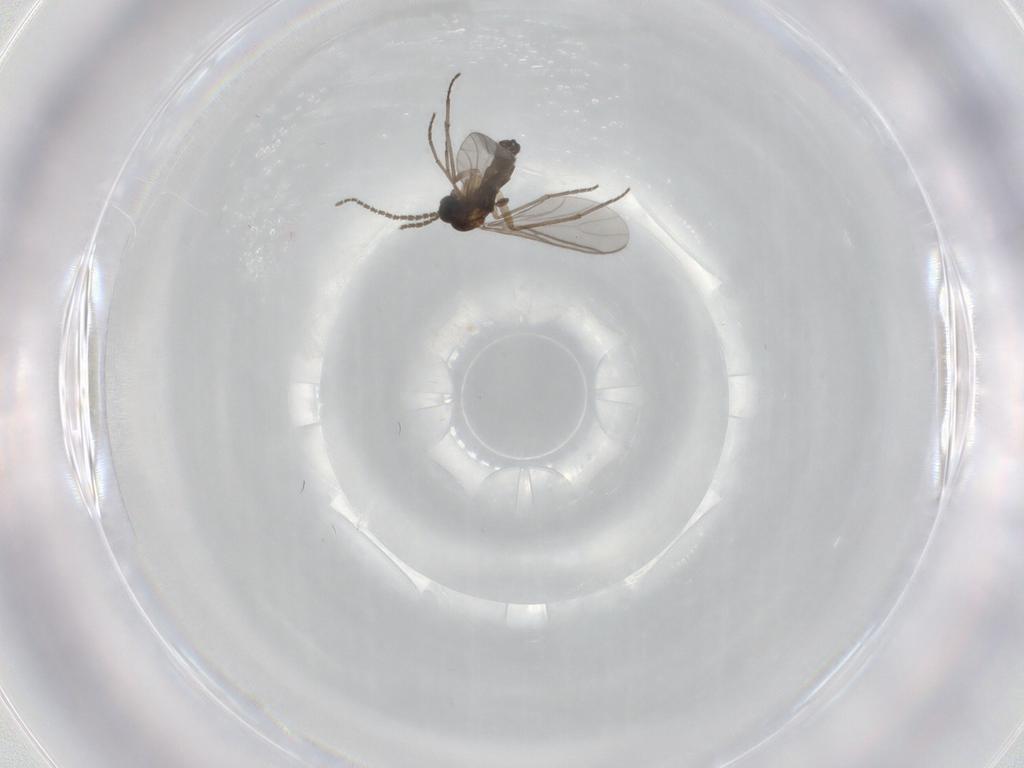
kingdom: Animalia
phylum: Arthropoda
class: Insecta
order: Diptera
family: Sciaridae
